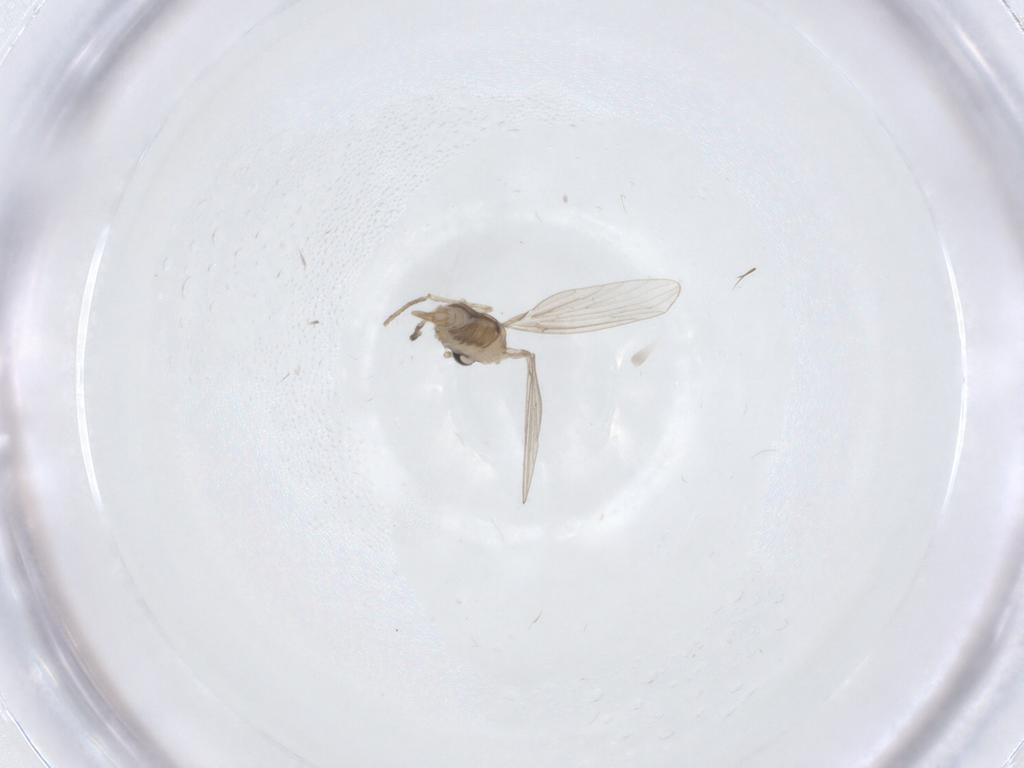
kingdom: Animalia
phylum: Arthropoda
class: Insecta
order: Diptera
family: Psychodidae
